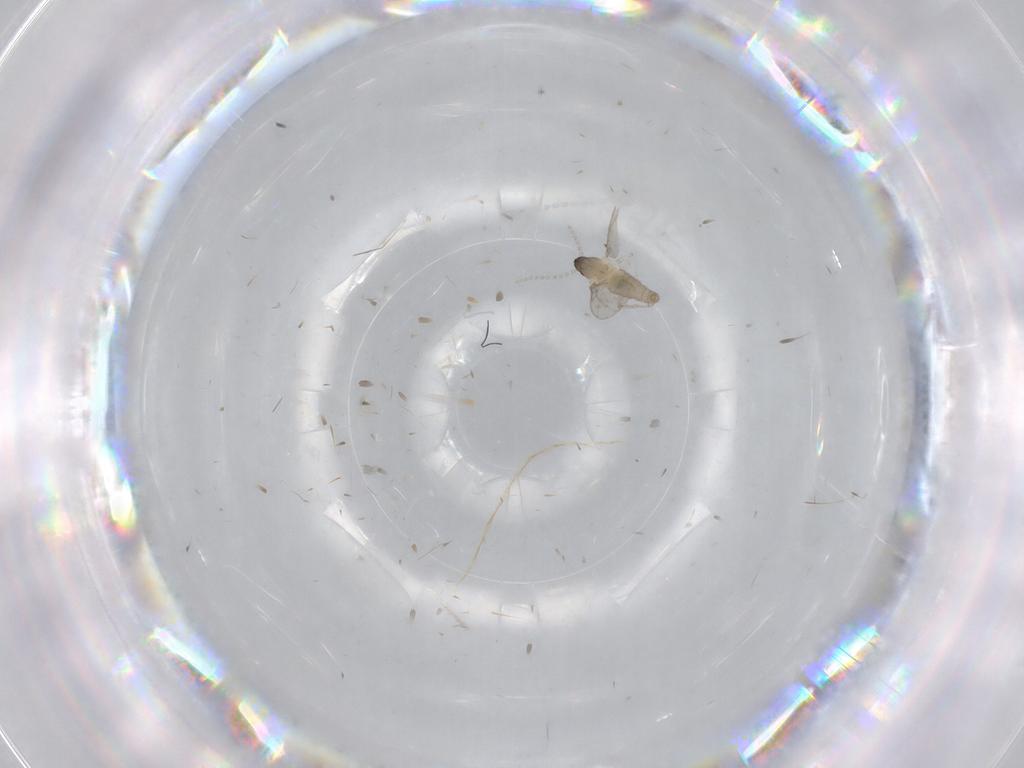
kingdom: Animalia
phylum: Arthropoda
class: Insecta
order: Diptera
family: Cecidomyiidae
